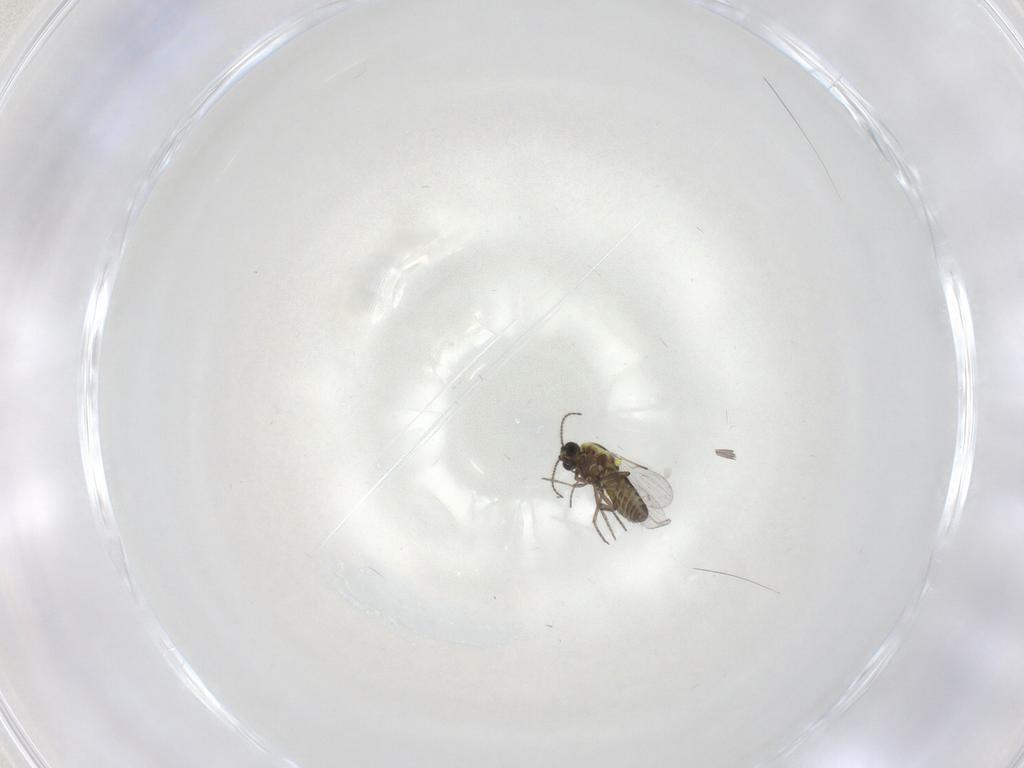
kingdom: Animalia
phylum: Arthropoda
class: Insecta
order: Diptera
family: Ceratopogonidae
